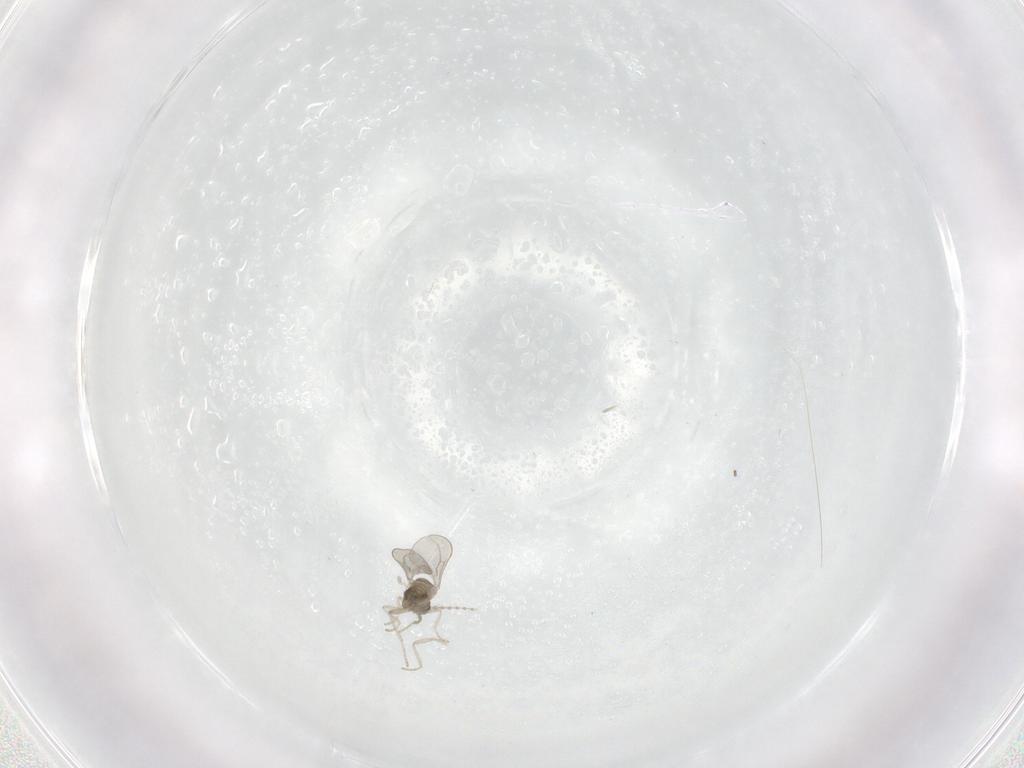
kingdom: Animalia
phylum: Arthropoda
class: Insecta
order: Diptera
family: Cecidomyiidae
